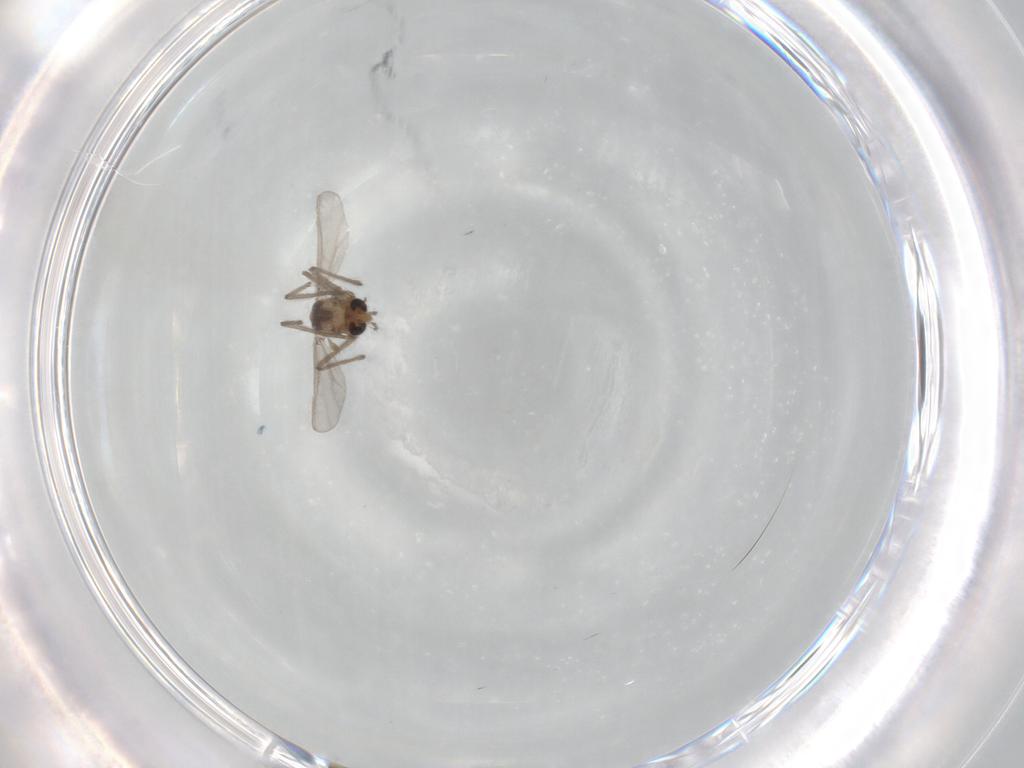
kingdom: Animalia
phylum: Arthropoda
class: Insecta
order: Diptera
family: Chironomidae
